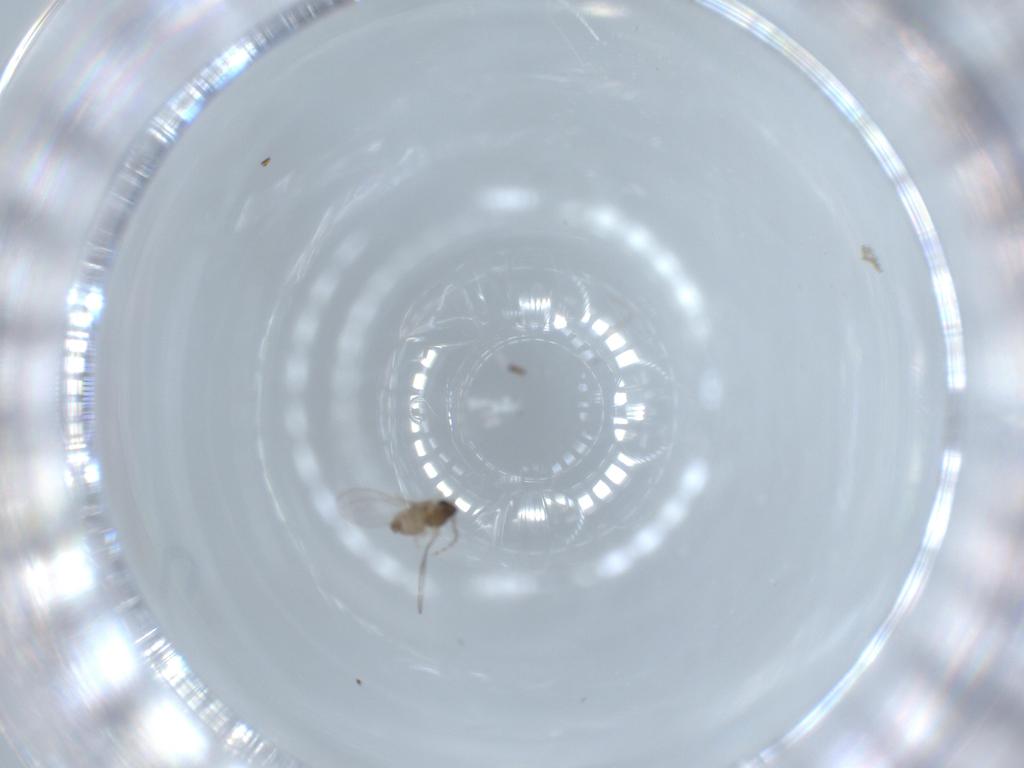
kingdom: Animalia
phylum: Arthropoda
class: Insecta
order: Diptera
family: Cecidomyiidae
